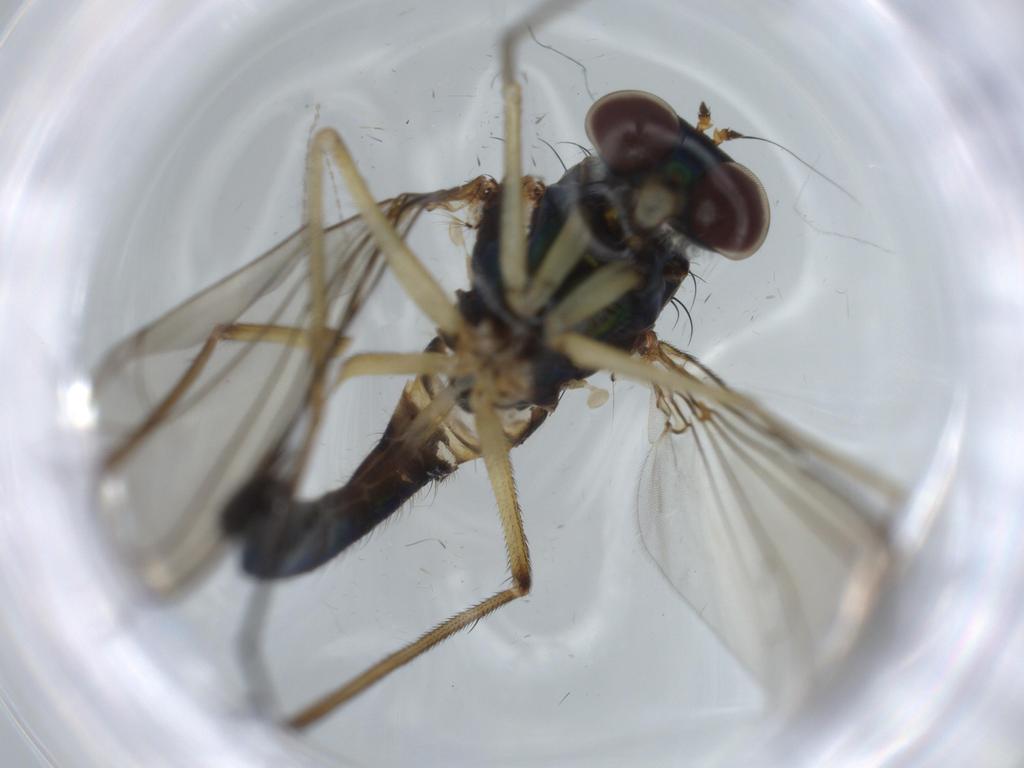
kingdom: Animalia
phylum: Arthropoda
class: Insecta
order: Diptera
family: Dolichopodidae
